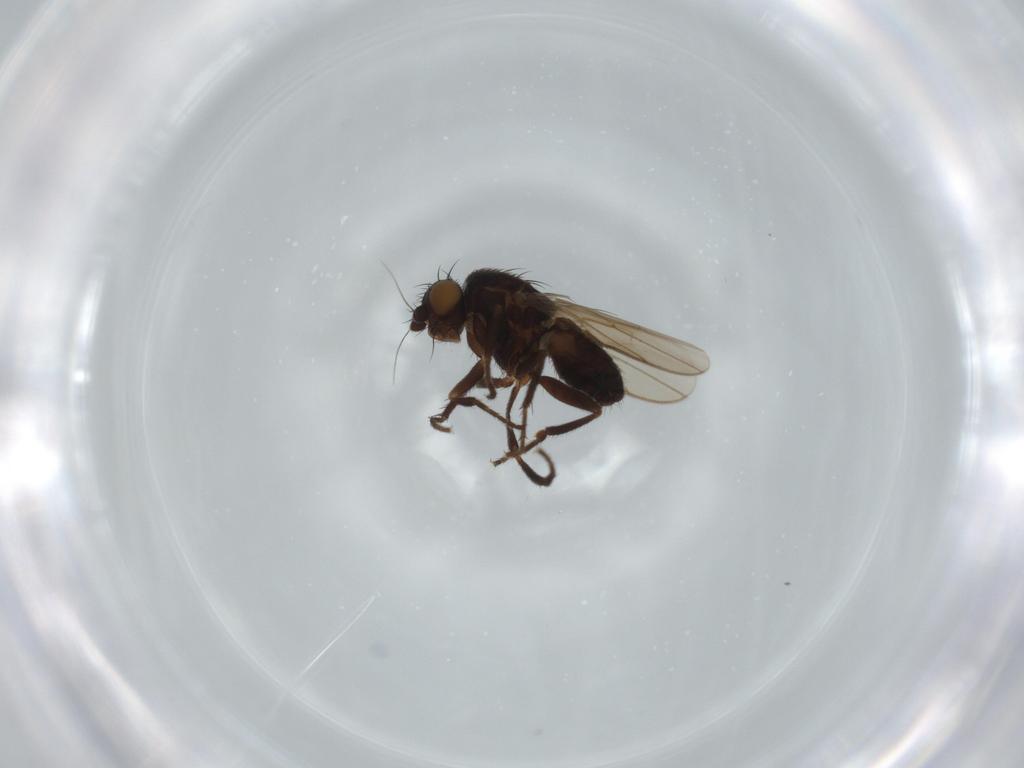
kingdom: Animalia
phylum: Arthropoda
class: Insecta
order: Diptera
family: Sphaeroceridae
